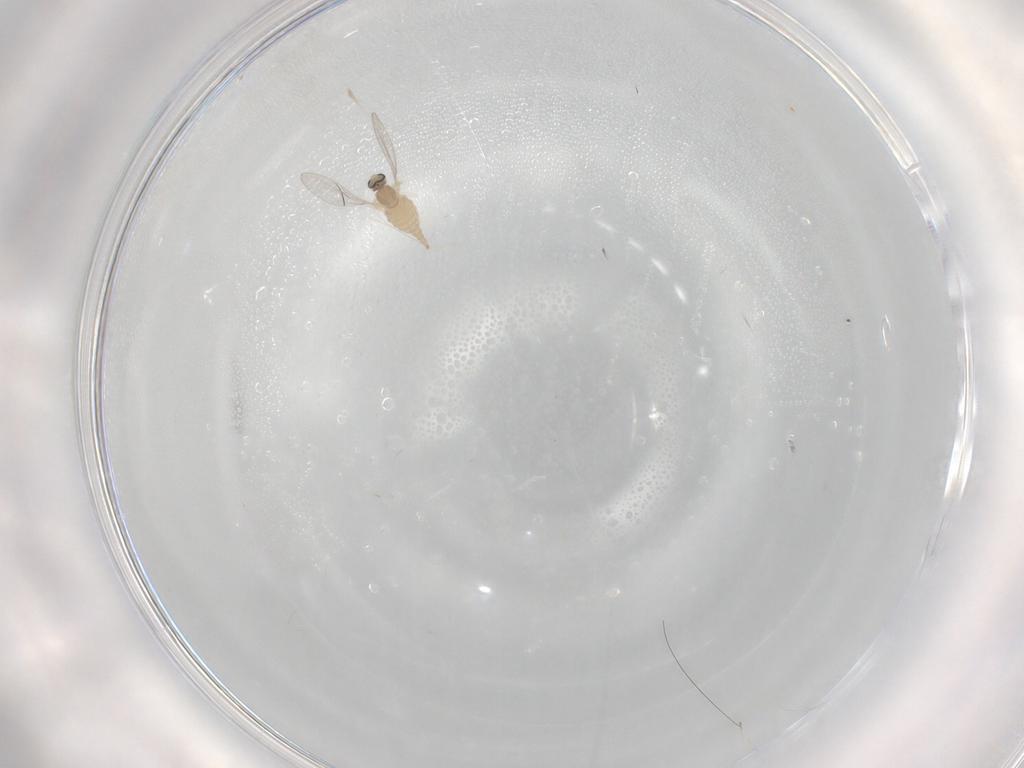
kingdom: Animalia
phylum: Arthropoda
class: Insecta
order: Diptera
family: Cecidomyiidae
